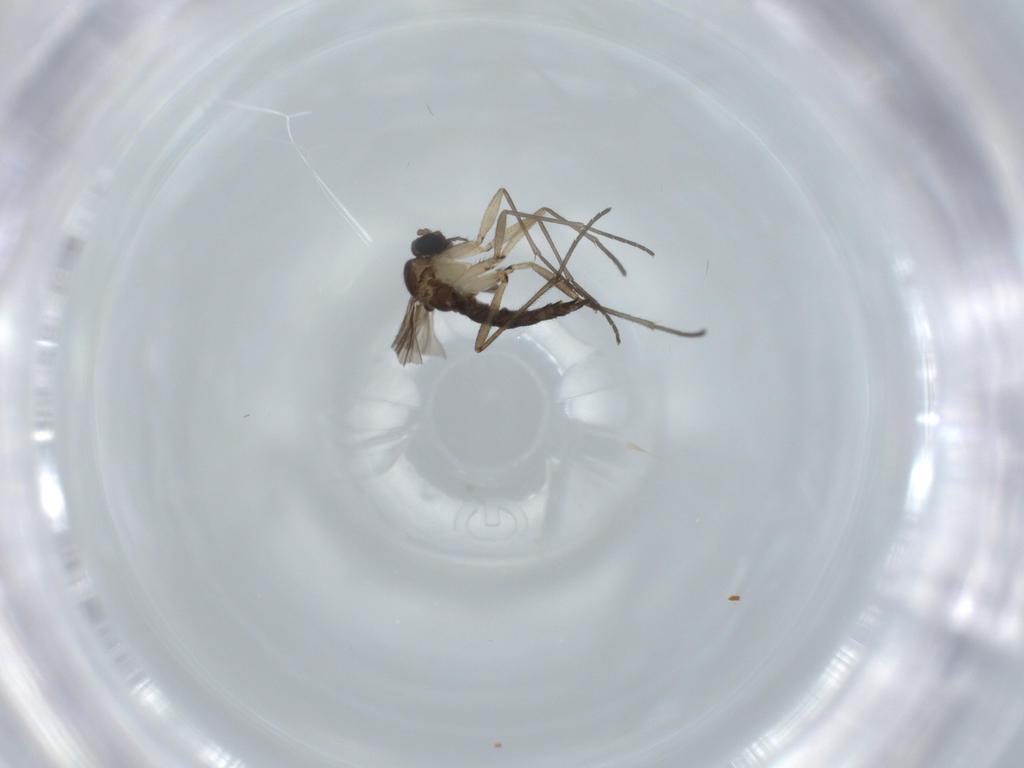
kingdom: Animalia
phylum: Arthropoda
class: Insecta
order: Diptera
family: Sciaridae
